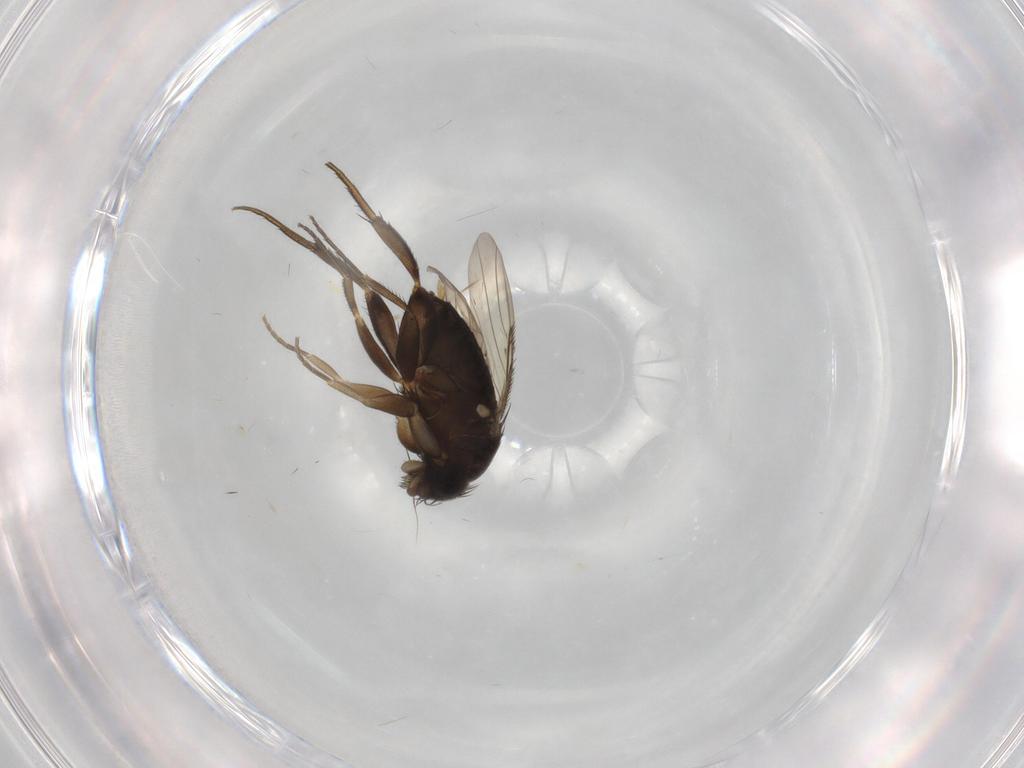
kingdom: Animalia
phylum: Arthropoda
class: Insecta
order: Diptera
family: Phoridae
